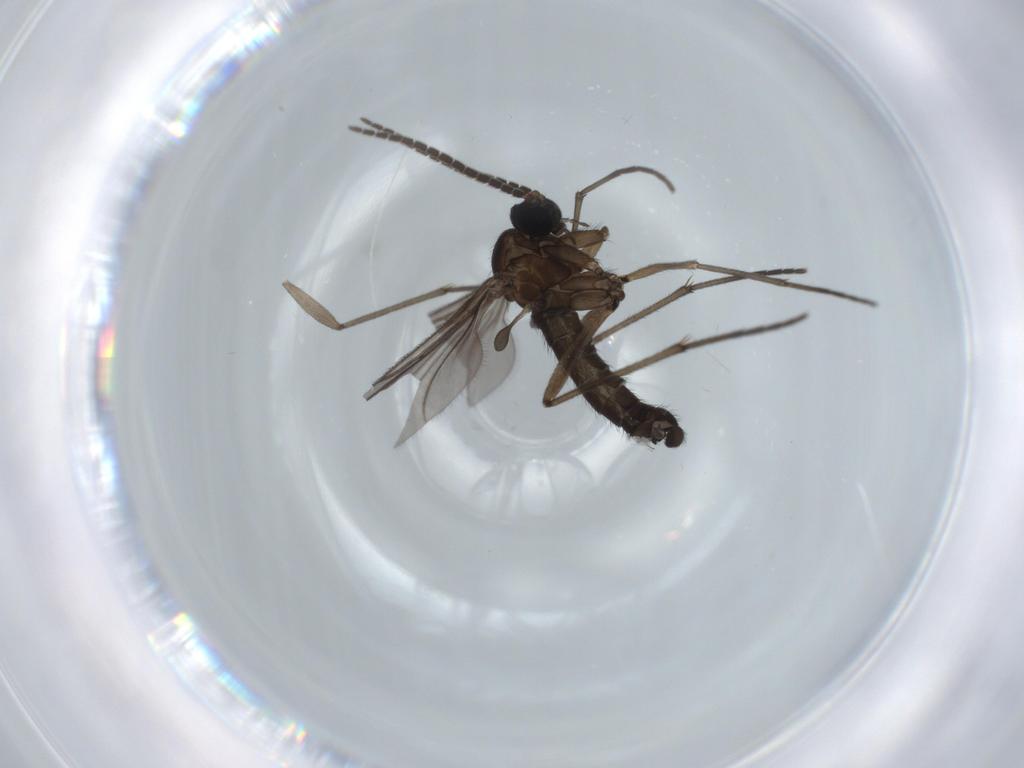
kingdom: Animalia
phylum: Arthropoda
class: Insecta
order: Diptera
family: Sciaridae
